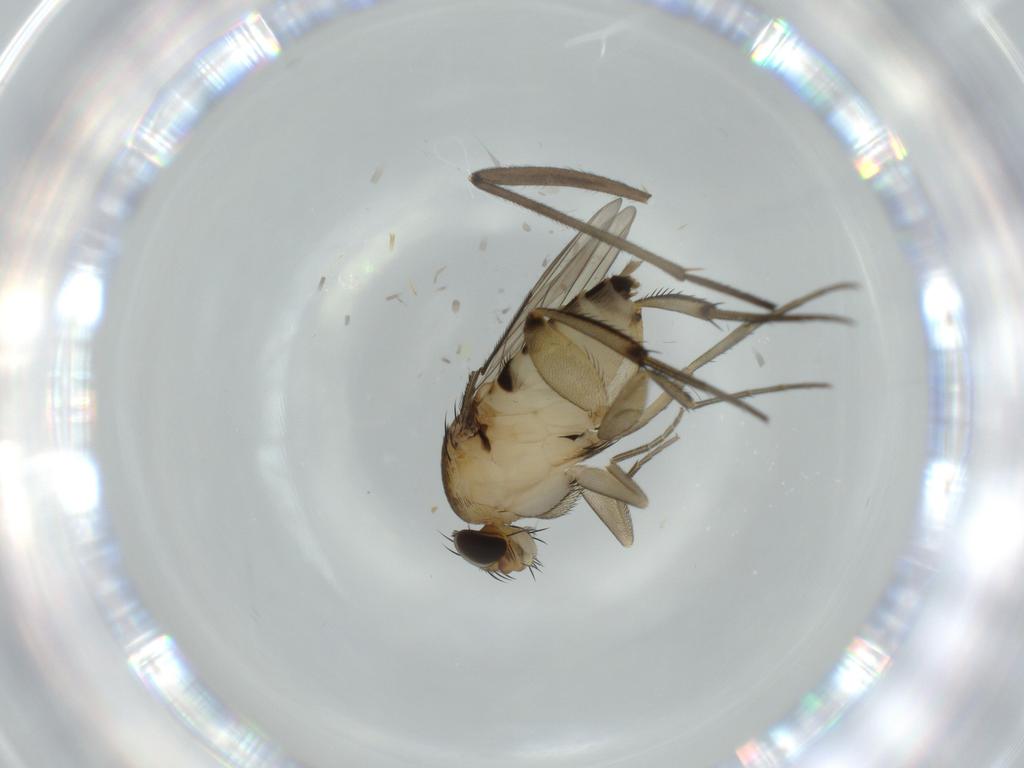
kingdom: Animalia
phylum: Arthropoda
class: Insecta
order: Diptera
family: Phoridae
